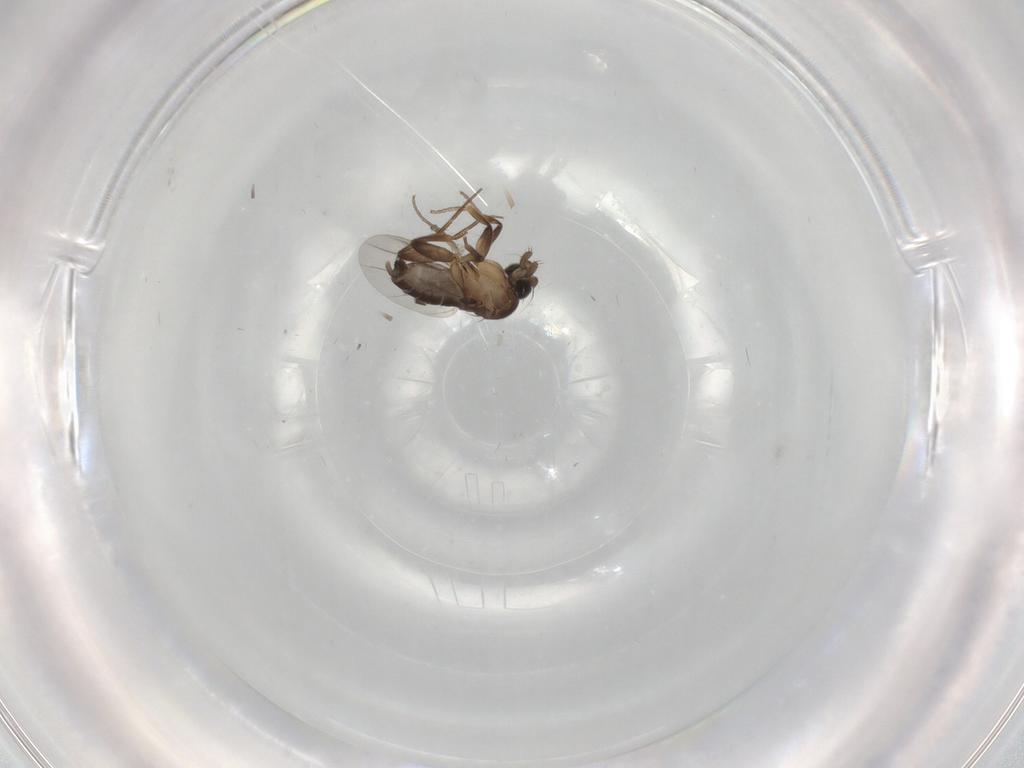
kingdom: Animalia
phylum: Arthropoda
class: Insecta
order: Diptera
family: Phoridae
